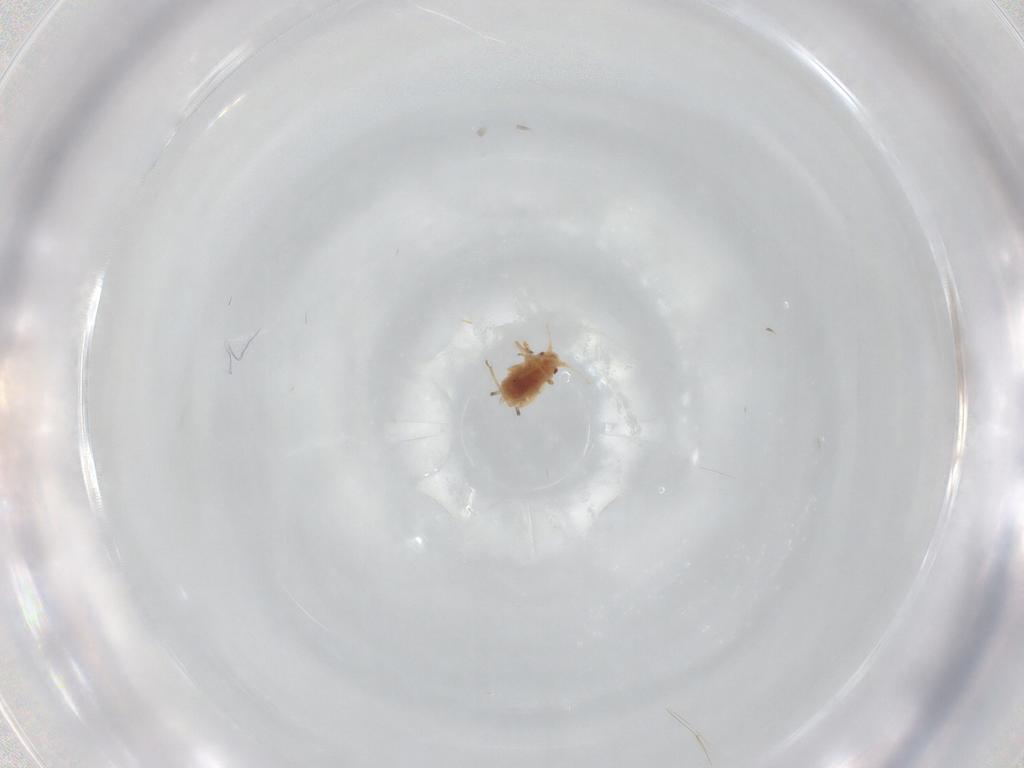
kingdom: Animalia
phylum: Arthropoda
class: Insecta
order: Hemiptera
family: Aphididae
